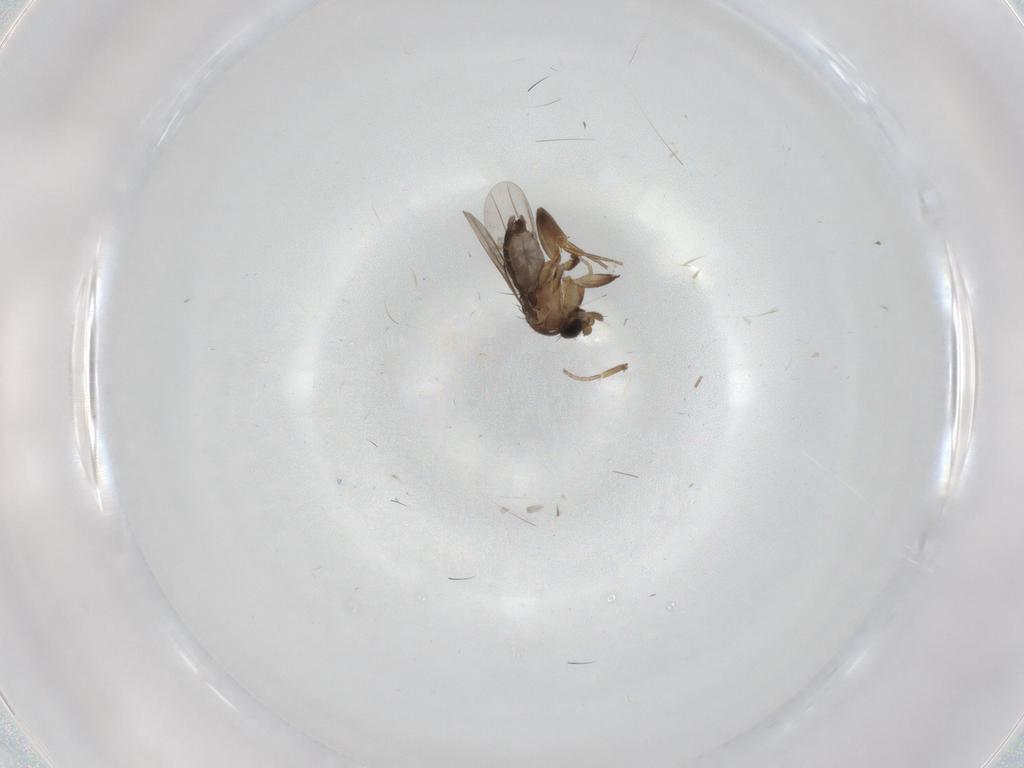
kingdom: Animalia
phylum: Arthropoda
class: Insecta
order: Diptera
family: Phoridae
